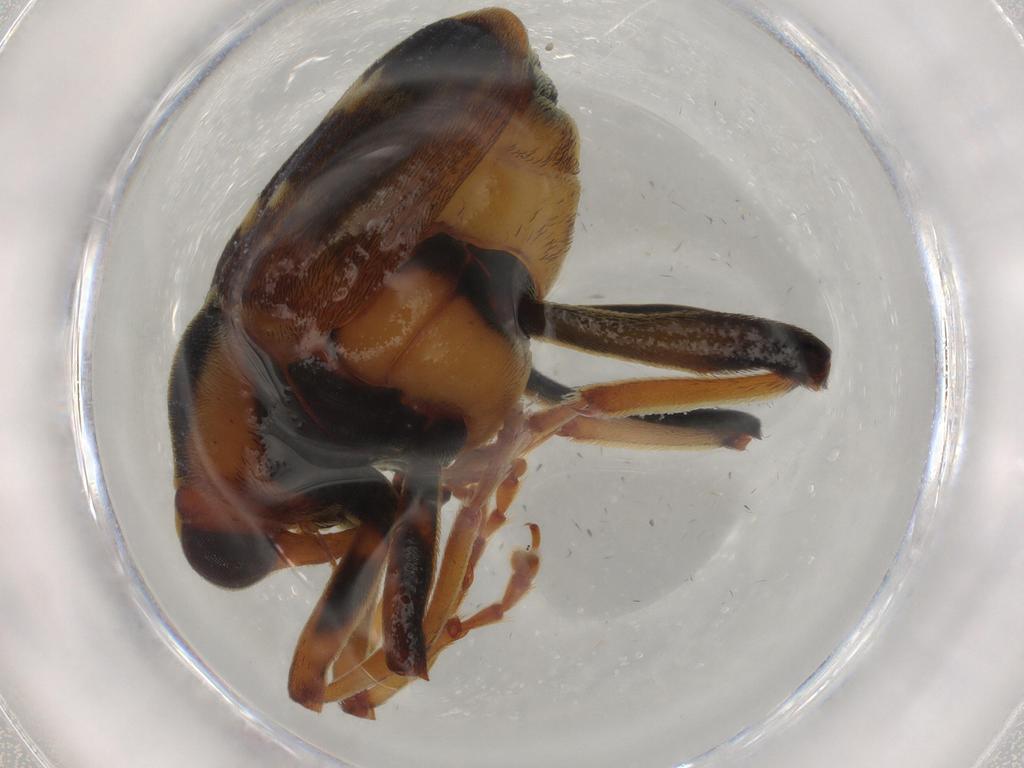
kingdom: Animalia
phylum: Arthropoda
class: Insecta
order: Coleoptera
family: Curculionidae
